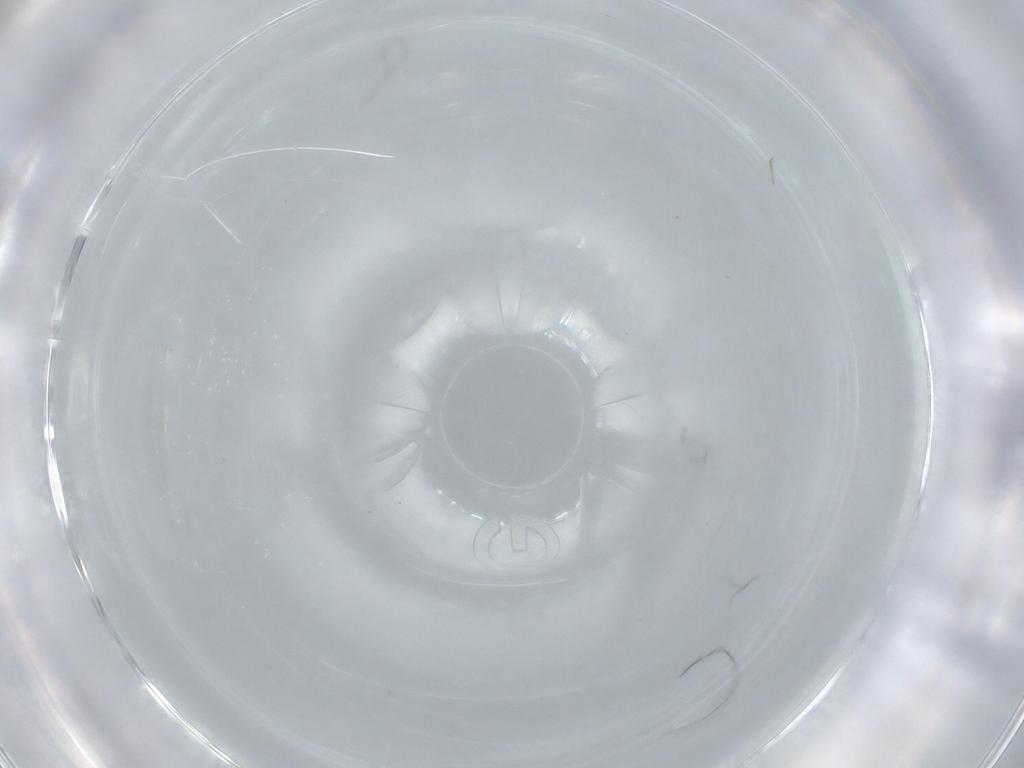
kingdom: Animalia
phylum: Arthropoda
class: Insecta
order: Diptera
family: Cecidomyiidae
